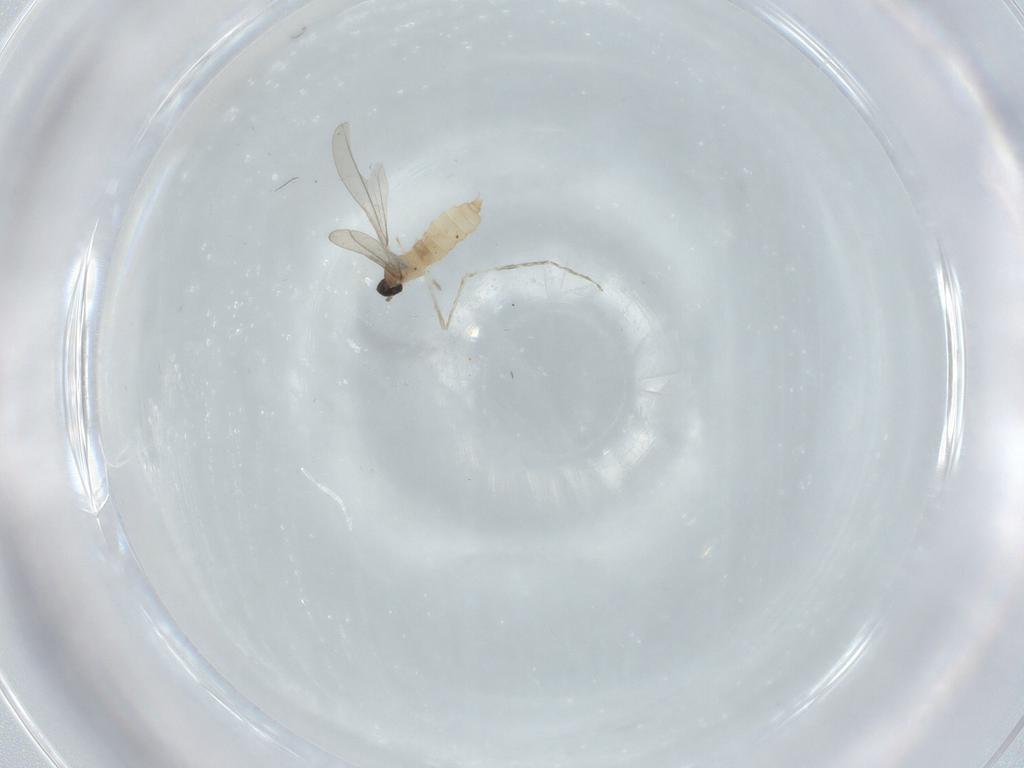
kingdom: Animalia
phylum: Arthropoda
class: Insecta
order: Diptera
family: Cecidomyiidae
